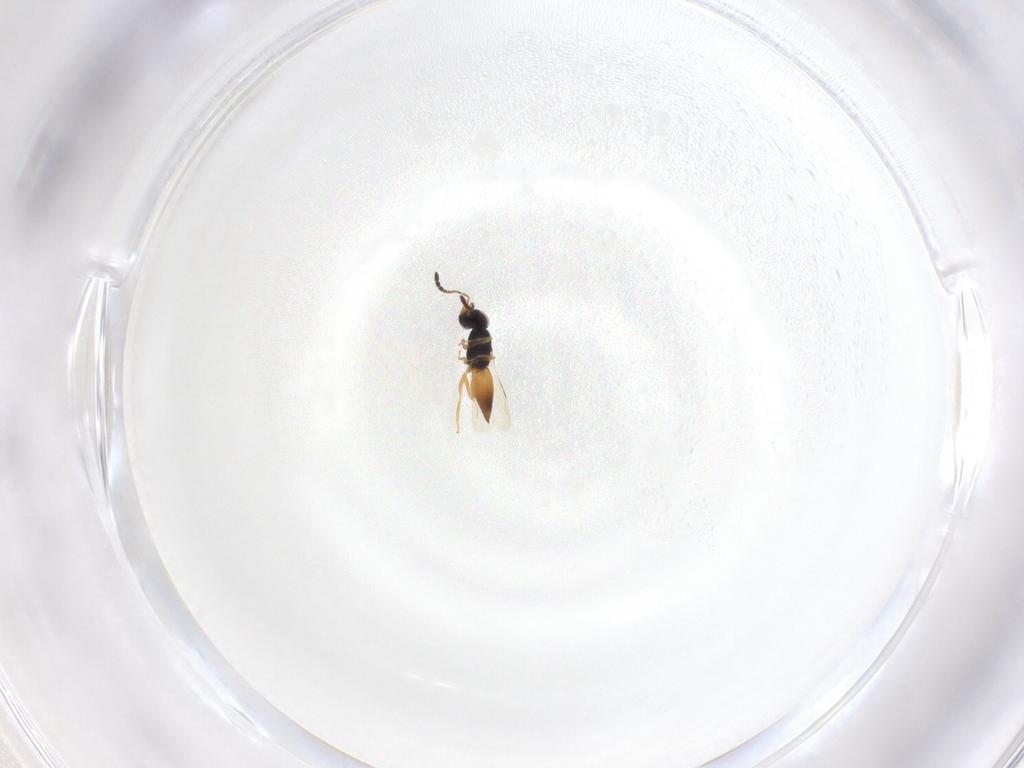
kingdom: Animalia
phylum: Arthropoda
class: Insecta
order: Hymenoptera
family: Ceraphronidae
